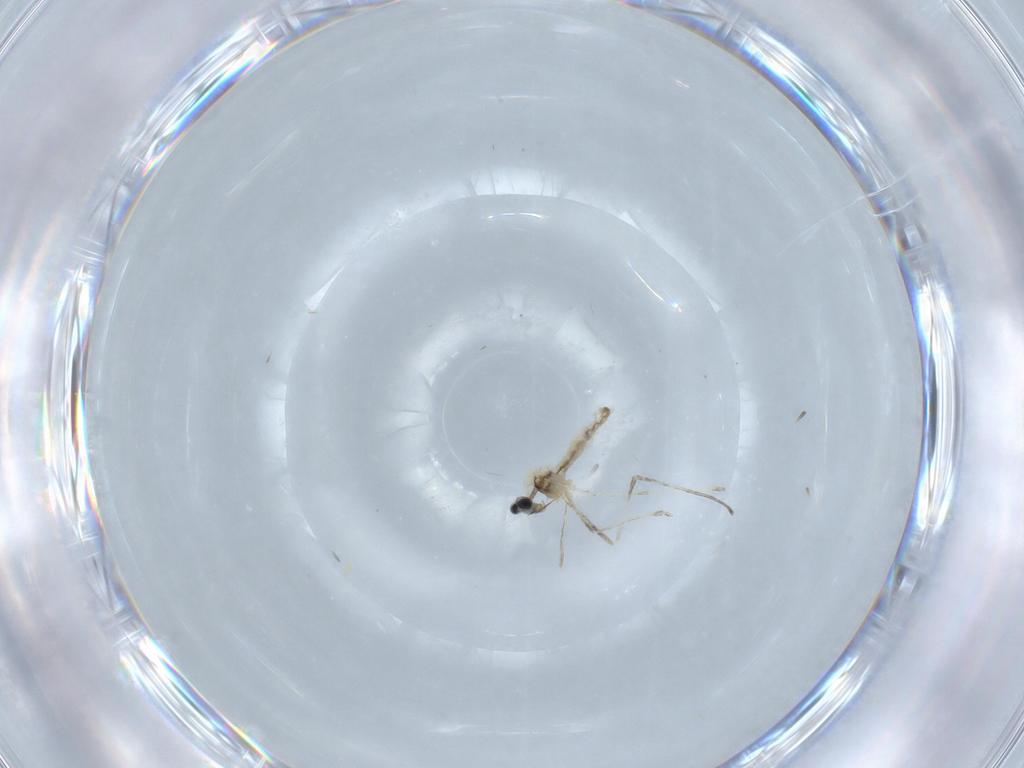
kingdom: Animalia
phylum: Arthropoda
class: Insecta
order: Diptera
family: Cecidomyiidae
